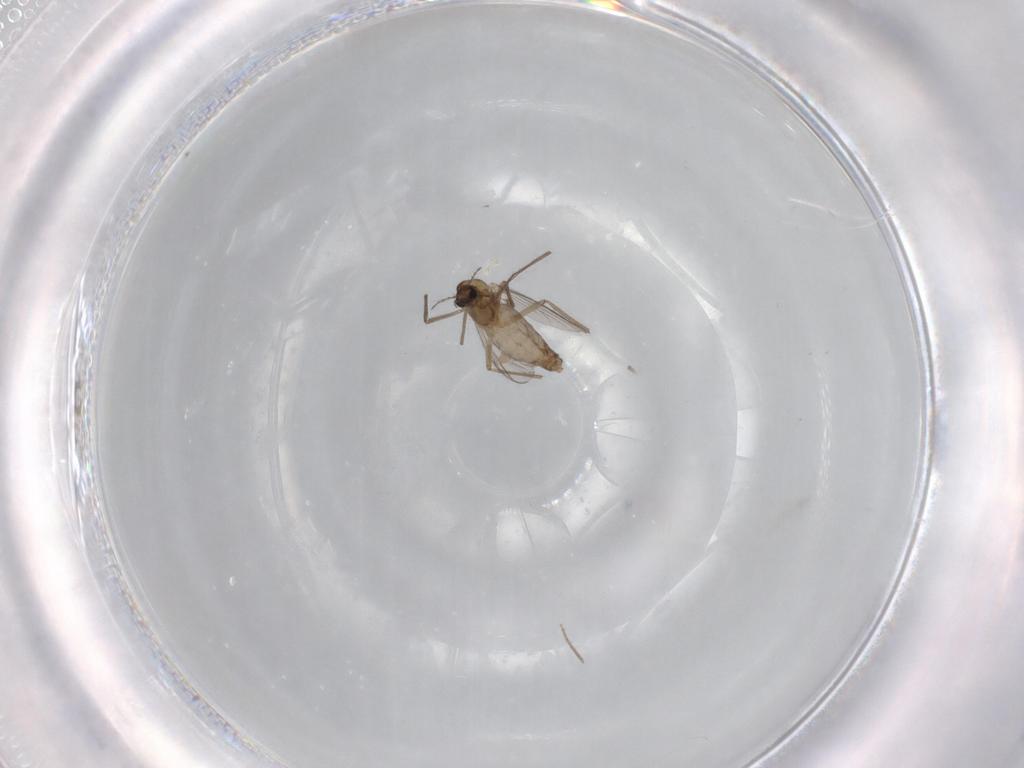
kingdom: Animalia
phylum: Arthropoda
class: Insecta
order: Diptera
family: Chironomidae
